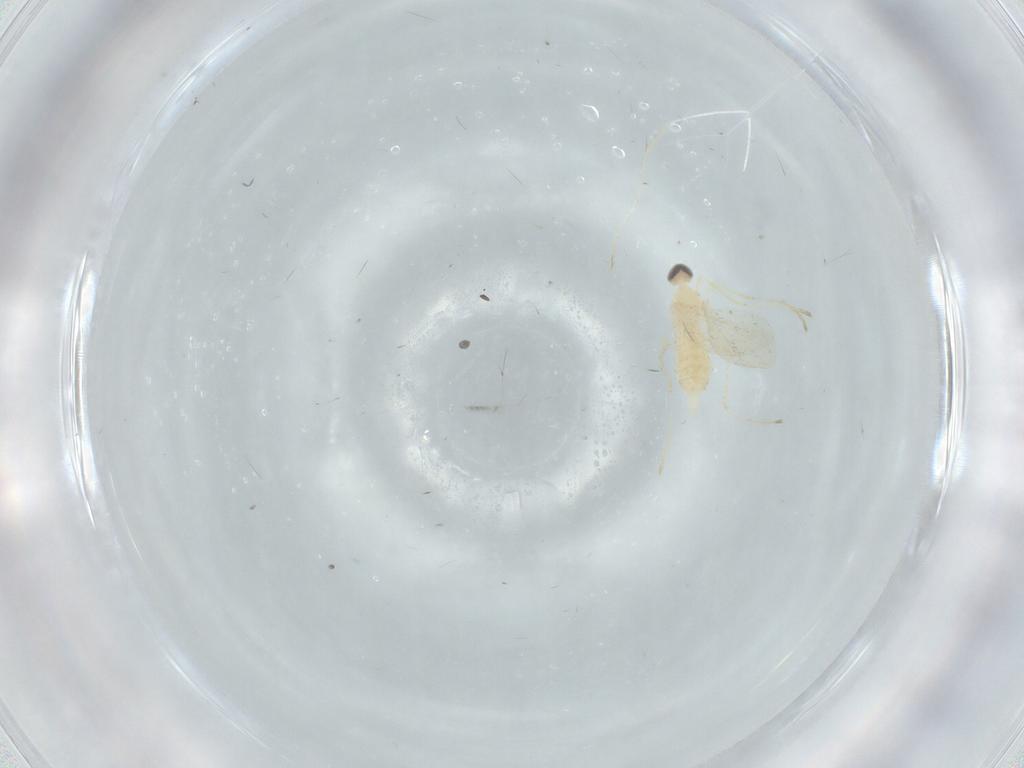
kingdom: Animalia
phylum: Arthropoda
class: Insecta
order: Diptera
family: Cecidomyiidae
